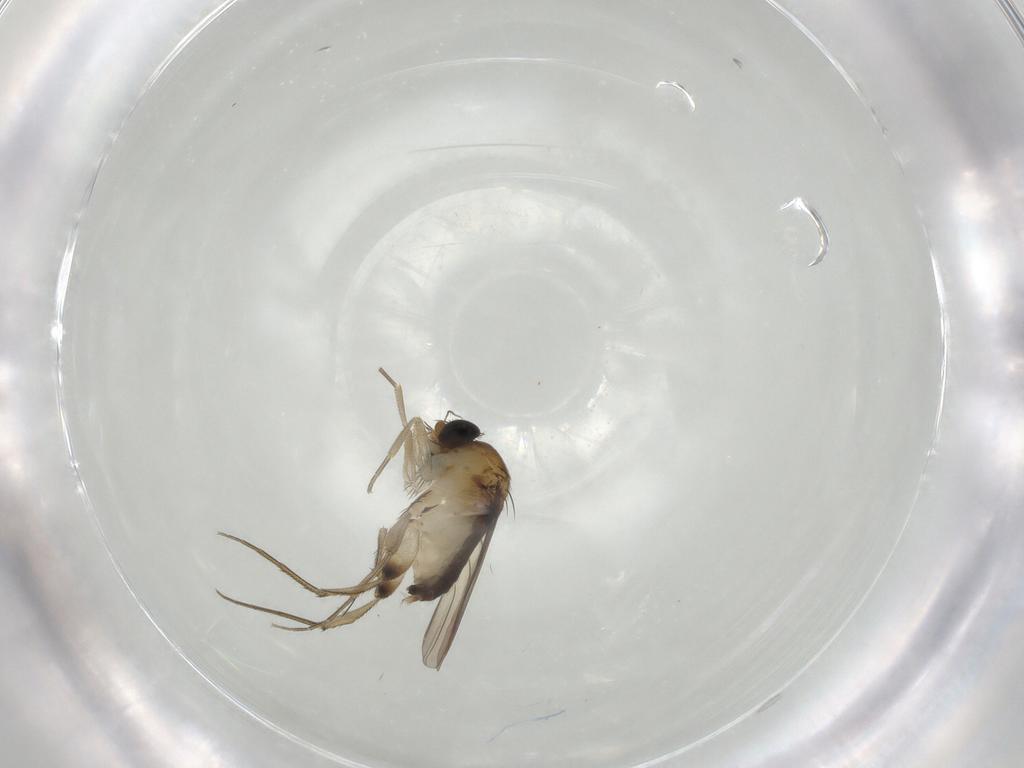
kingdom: Animalia
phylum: Arthropoda
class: Insecta
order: Diptera
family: Phoridae
